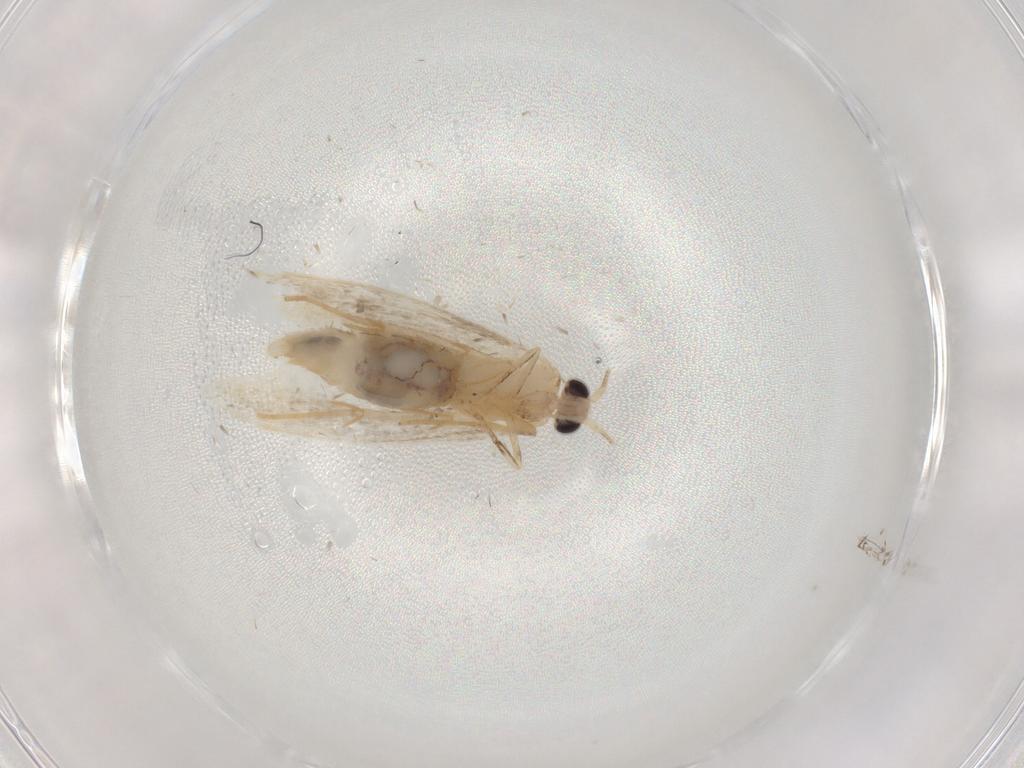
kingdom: Animalia
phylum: Arthropoda
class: Insecta
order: Lepidoptera
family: Nepticulidae
